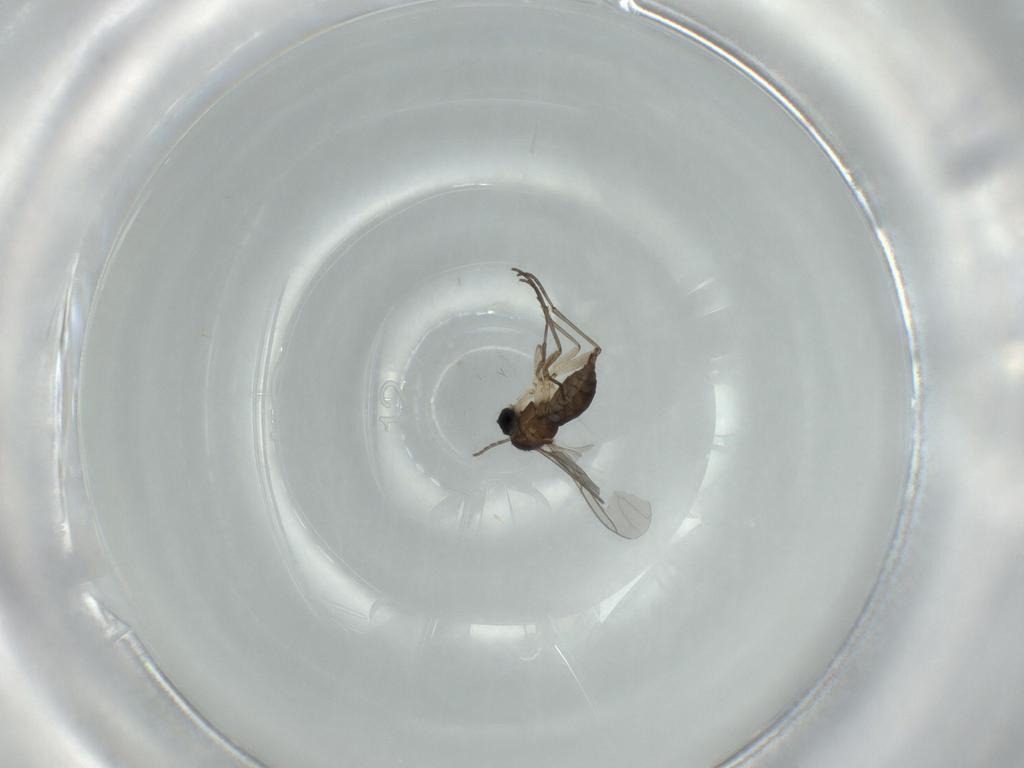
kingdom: Animalia
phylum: Arthropoda
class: Insecta
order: Diptera
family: Sciaridae
